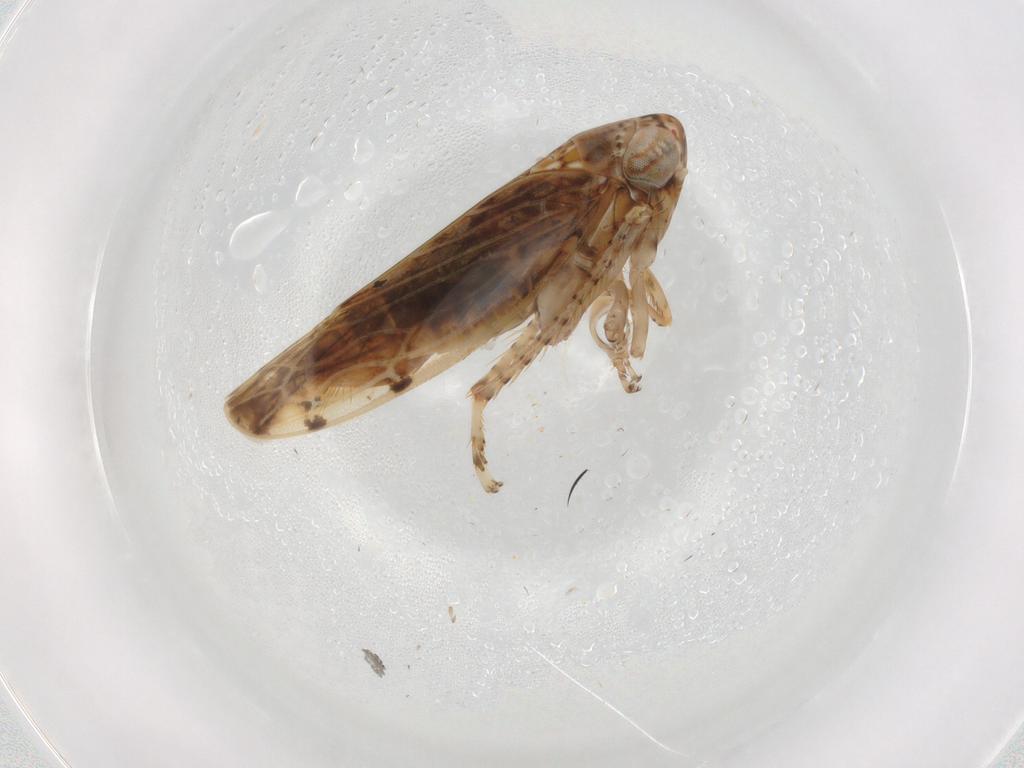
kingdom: Animalia
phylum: Arthropoda
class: Insecta
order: Hemiptera
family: Cicadellidae
